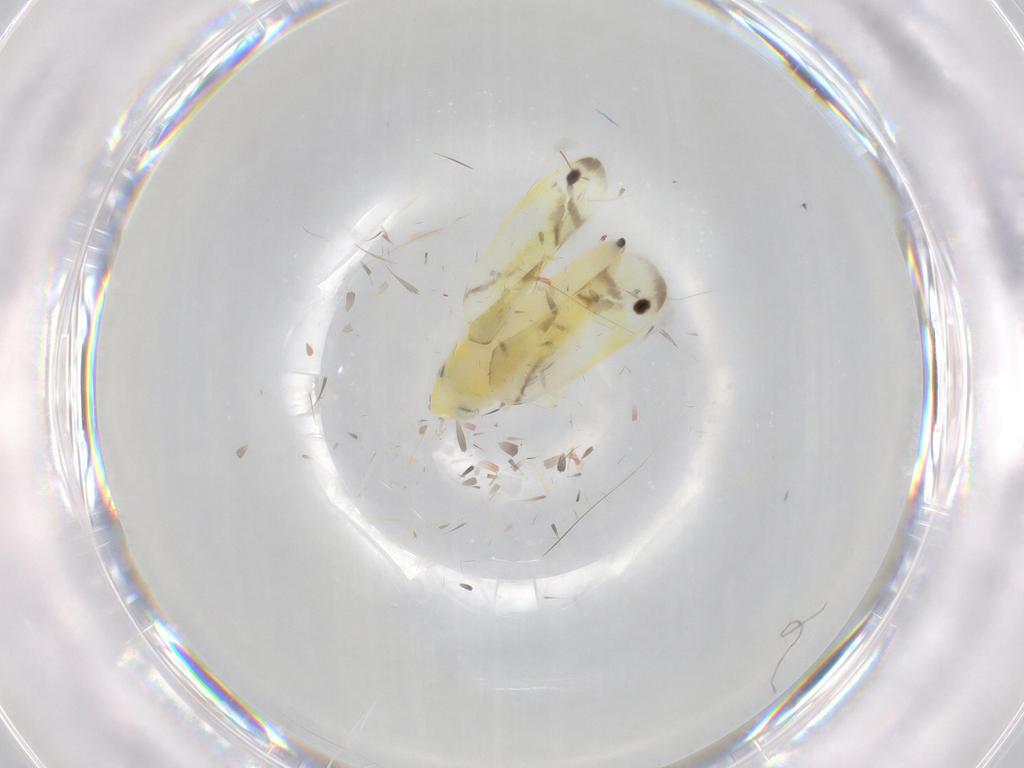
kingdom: Animalia
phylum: Arthropoda
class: Insecta
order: Hemiptera
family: Cicadellidae
